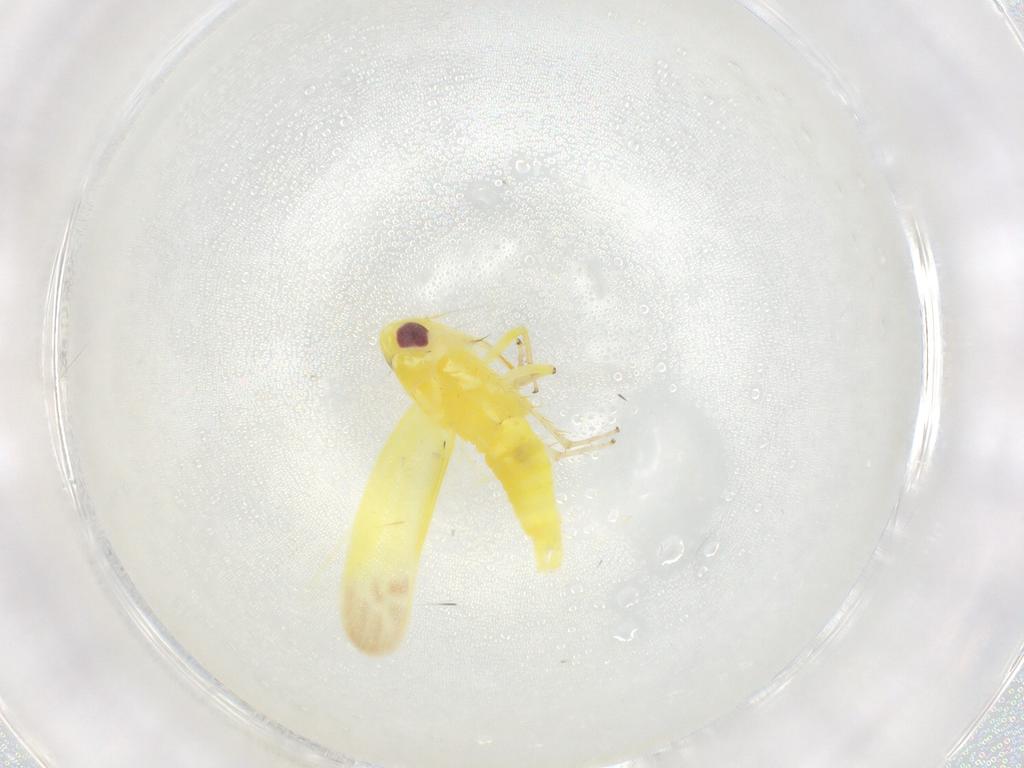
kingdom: Animalia
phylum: Arthropoda
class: Insecta
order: Hemiptera
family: Cicadellidae
